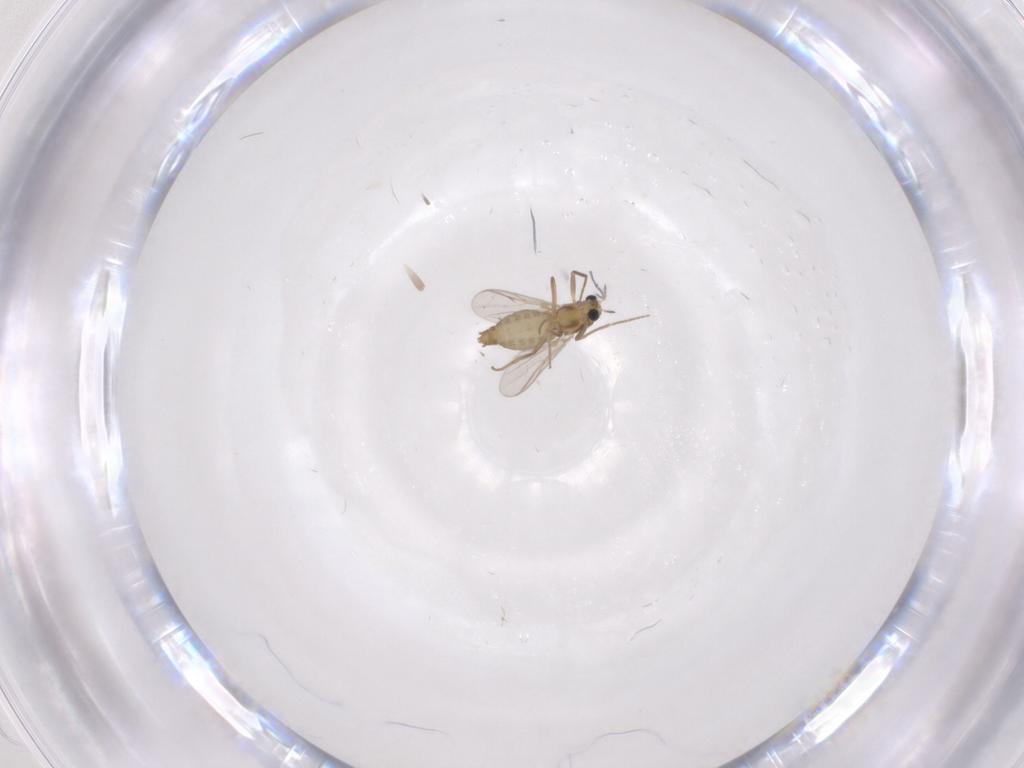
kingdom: Animalia
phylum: Arthropoda
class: Insecta
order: Diptera
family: Chironomidae
